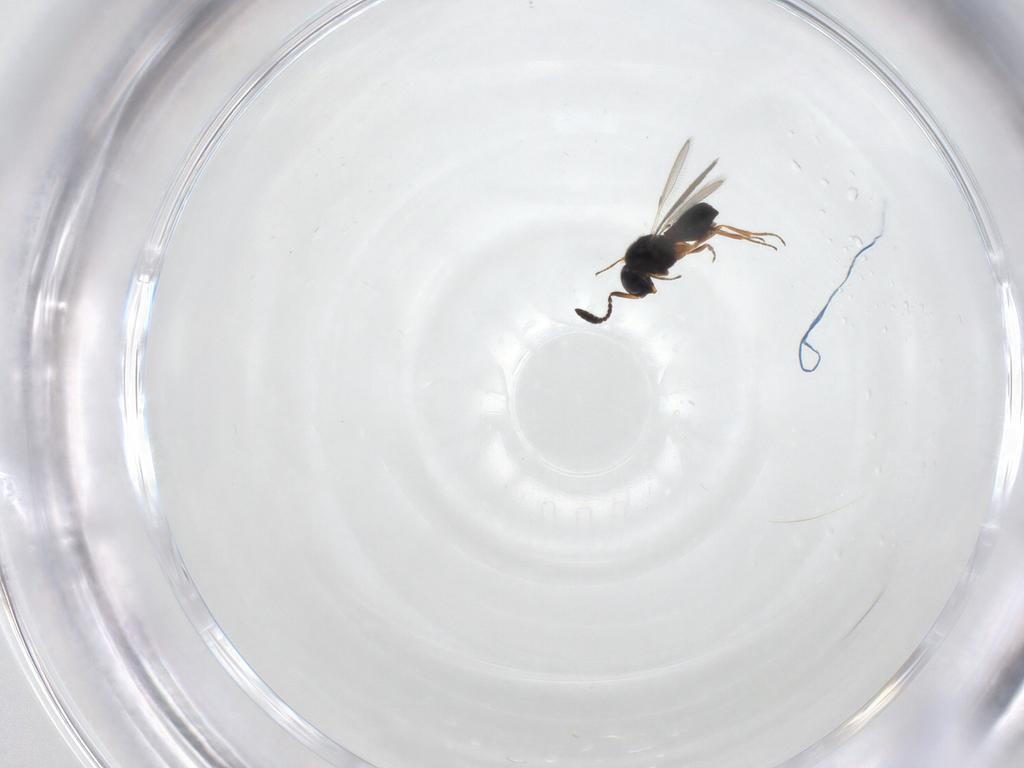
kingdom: Animalia
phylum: Arthropoda
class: Insecta
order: Hymenoptera
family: Scelionidae
